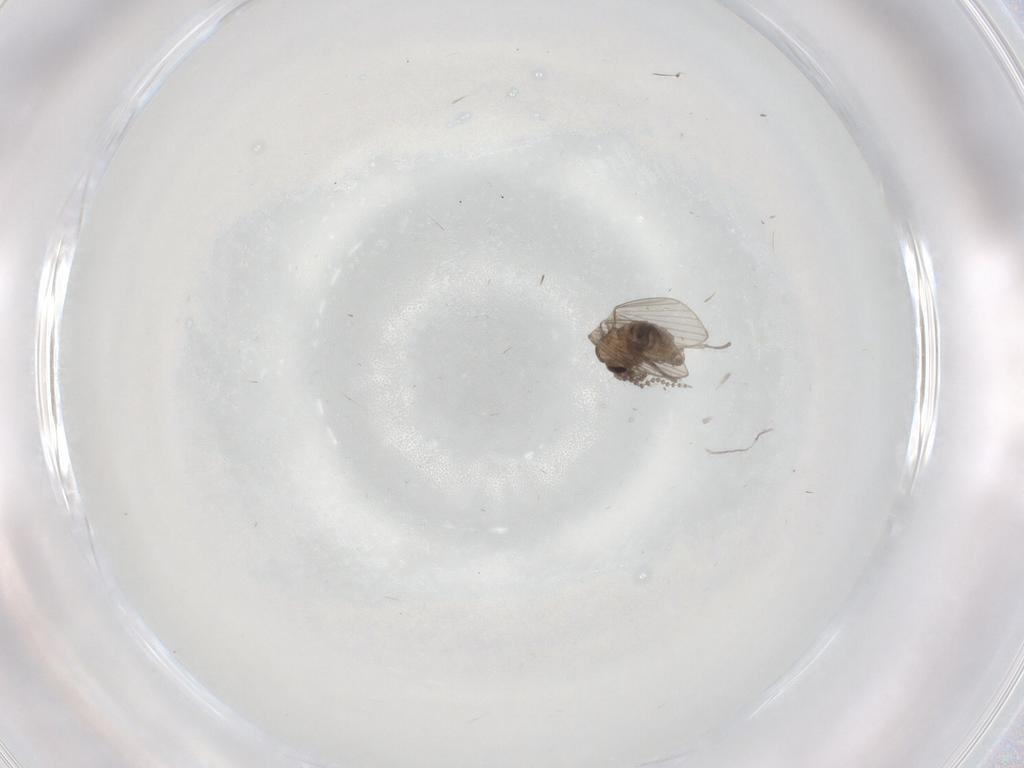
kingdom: Animalia
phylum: Arthropoda
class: Insecta
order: Diptera
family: Psychodidae
